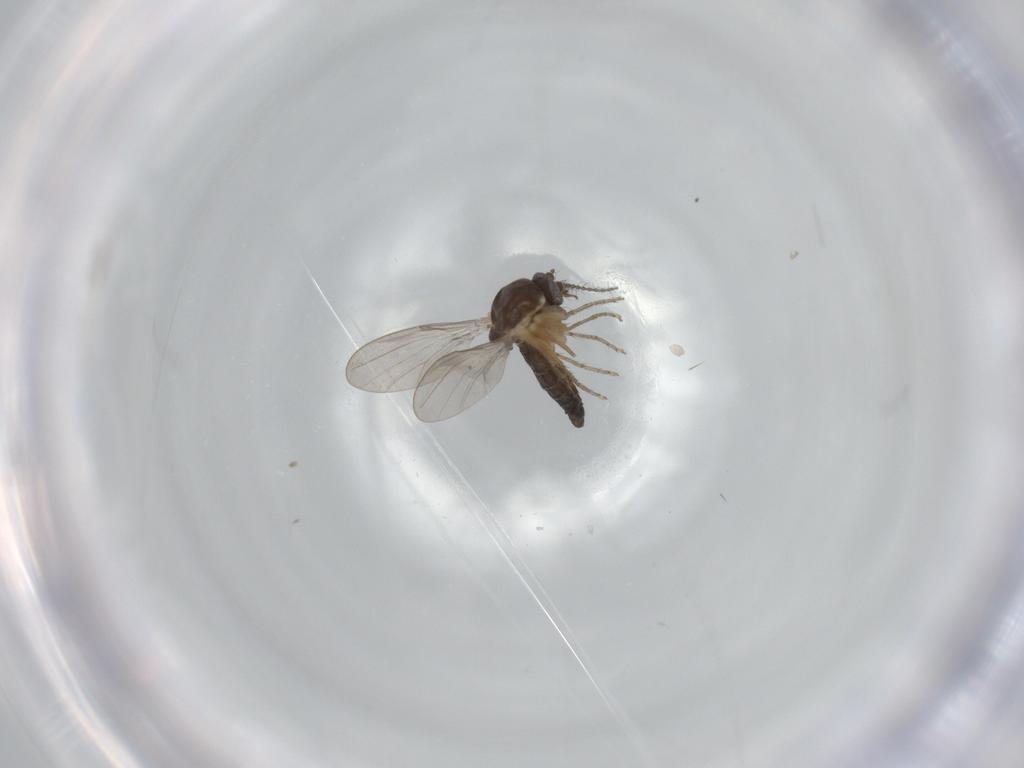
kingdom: Animalia
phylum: Arthropoda
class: Insecta
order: Diptera
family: Ceratopogonidae
